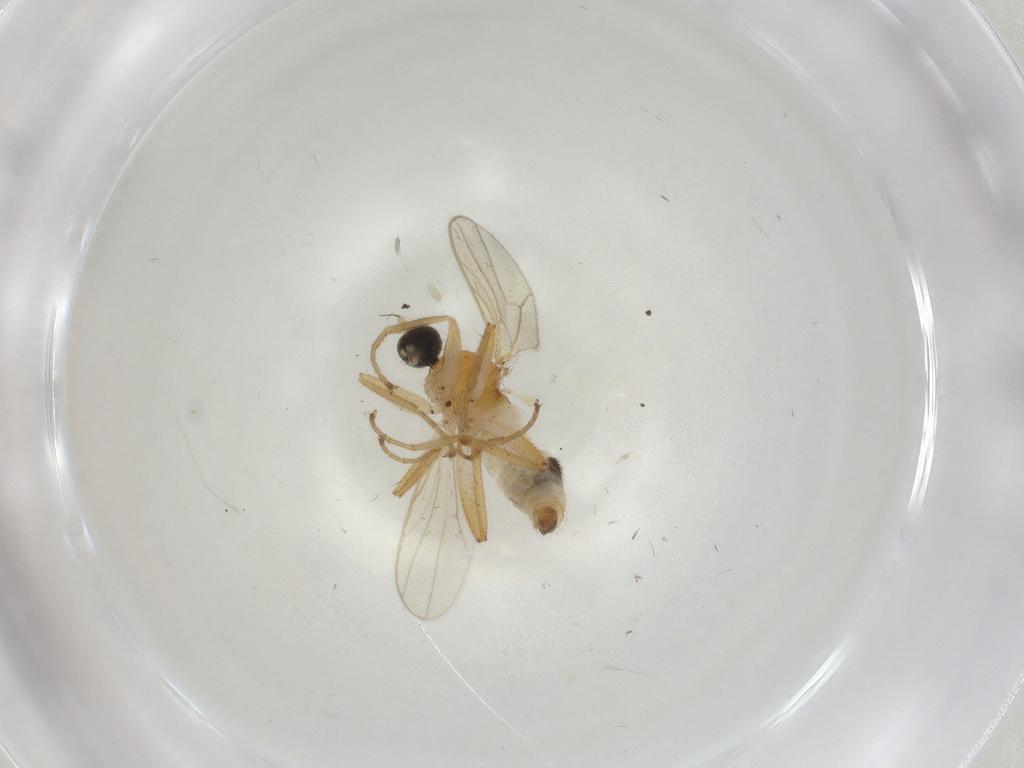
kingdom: Animalia
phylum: Arthropoda
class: Insecta
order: Diptera
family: Hybotidae
